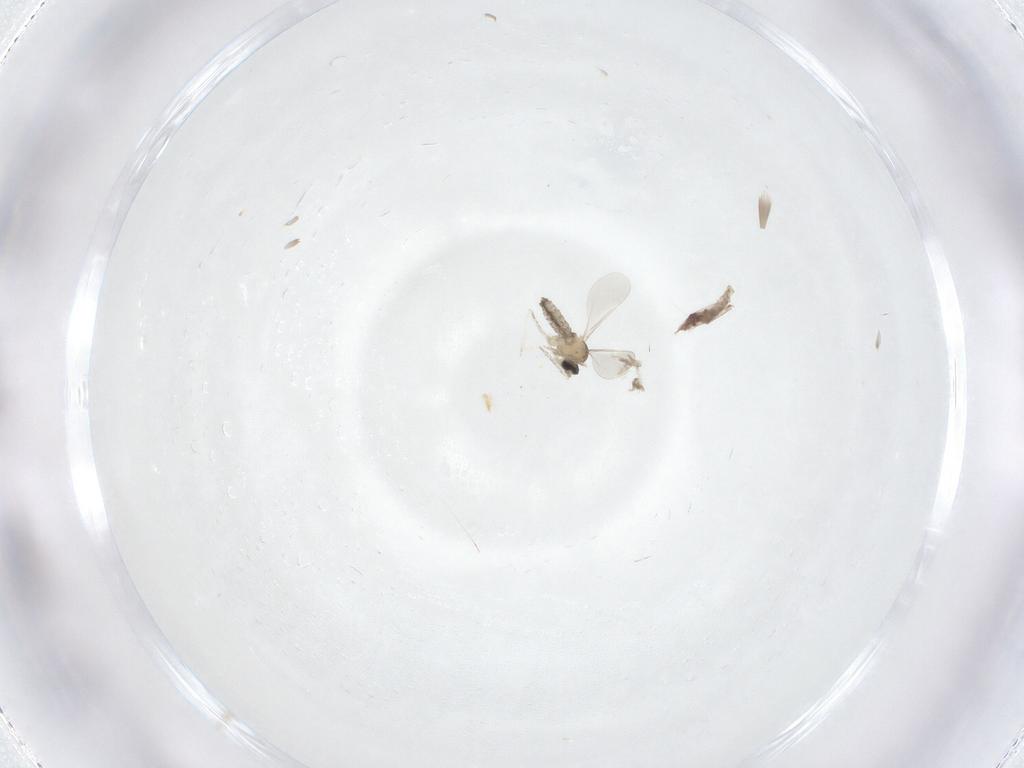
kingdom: Animalia
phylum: Arthropoda
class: Insecta
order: Diptera
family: Cecidomyiidae
